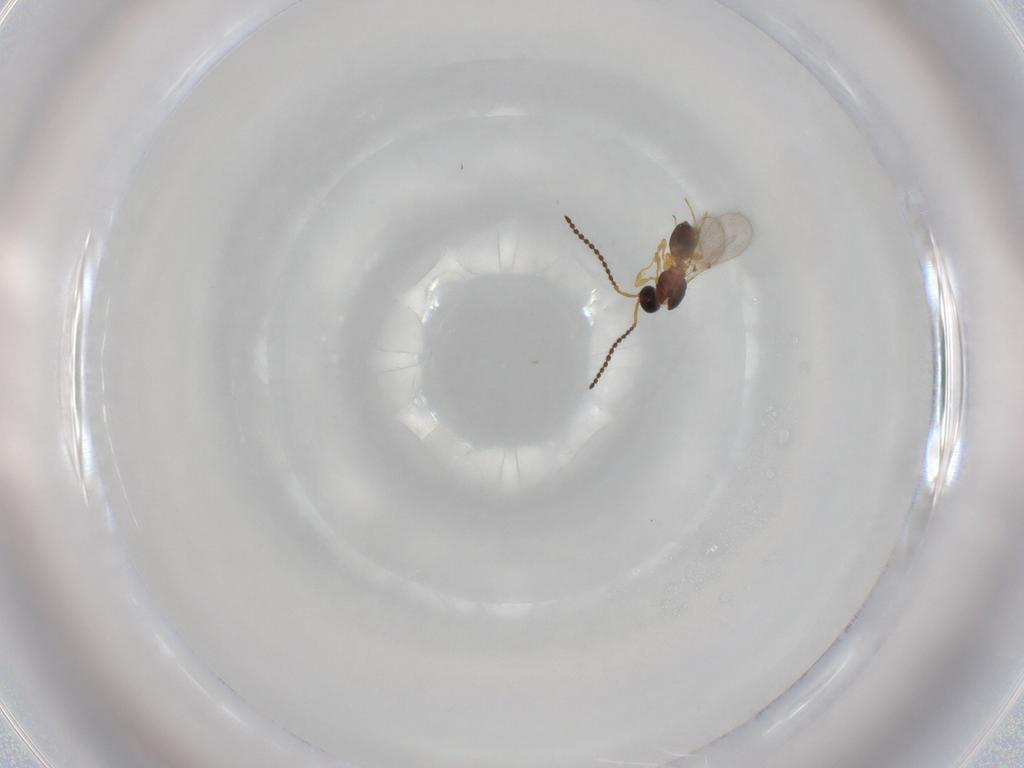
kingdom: Animalia
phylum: Arthropoda
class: Insecta
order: Hymenoptera
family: Diapriidae
